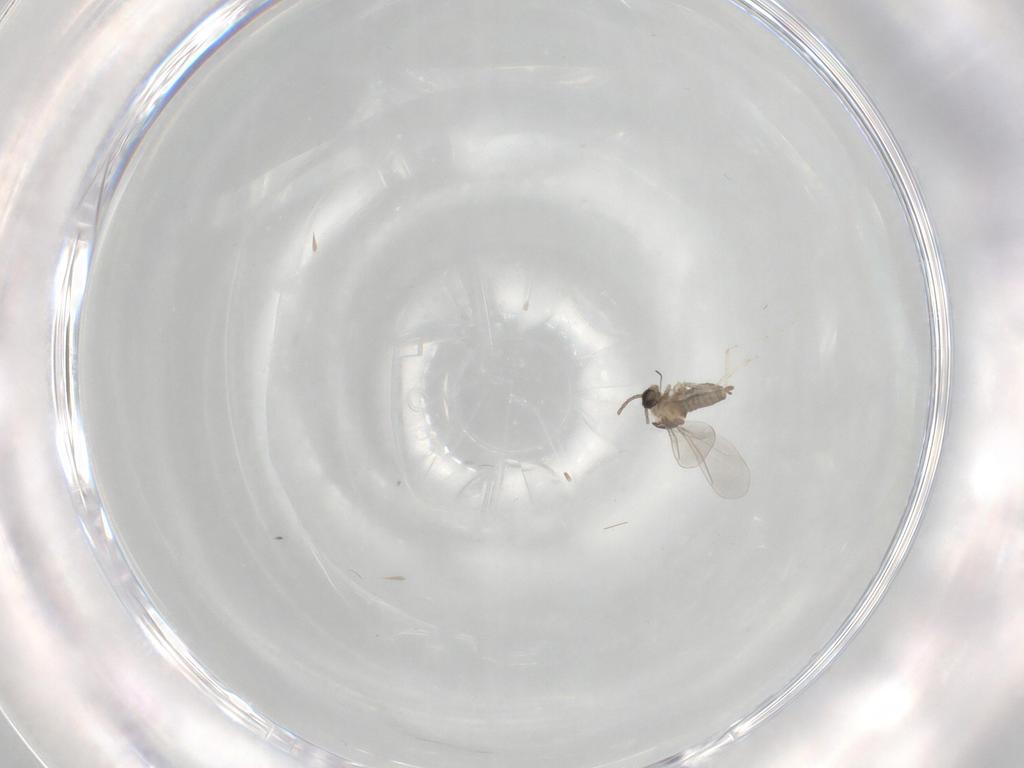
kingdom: Animalia
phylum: Arthropoda
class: Insecta
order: Diptera
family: Cecidomyiidae
